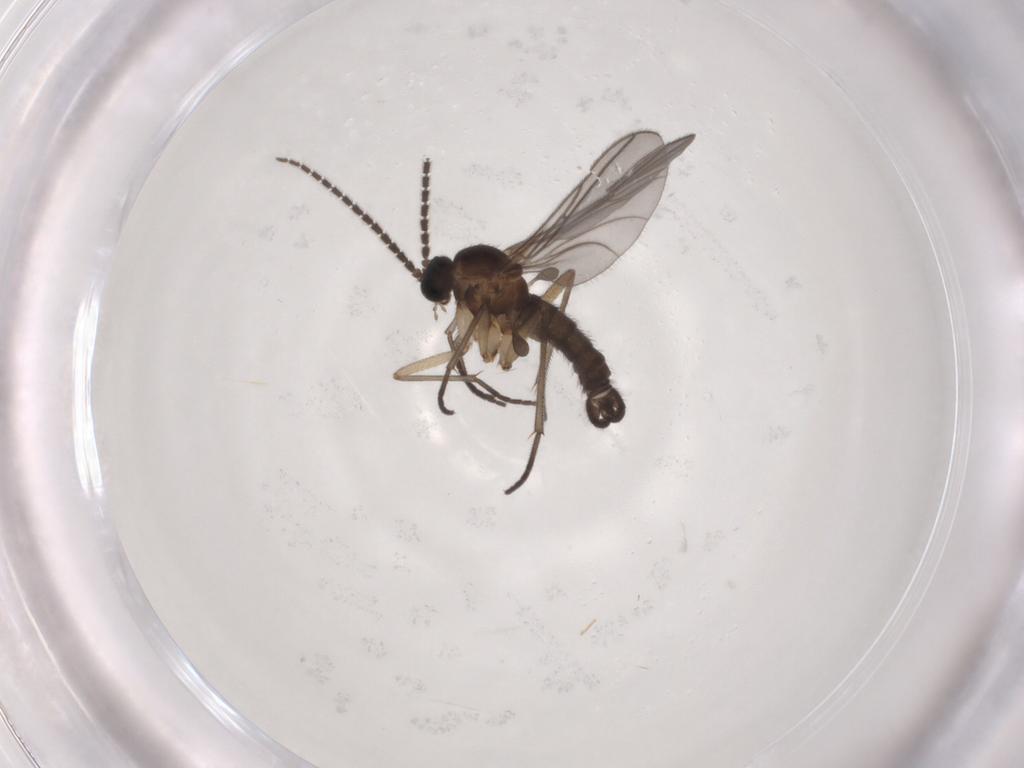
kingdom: Animalia
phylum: Arthropoda
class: Insecta
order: Diptera
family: Sciaridae
